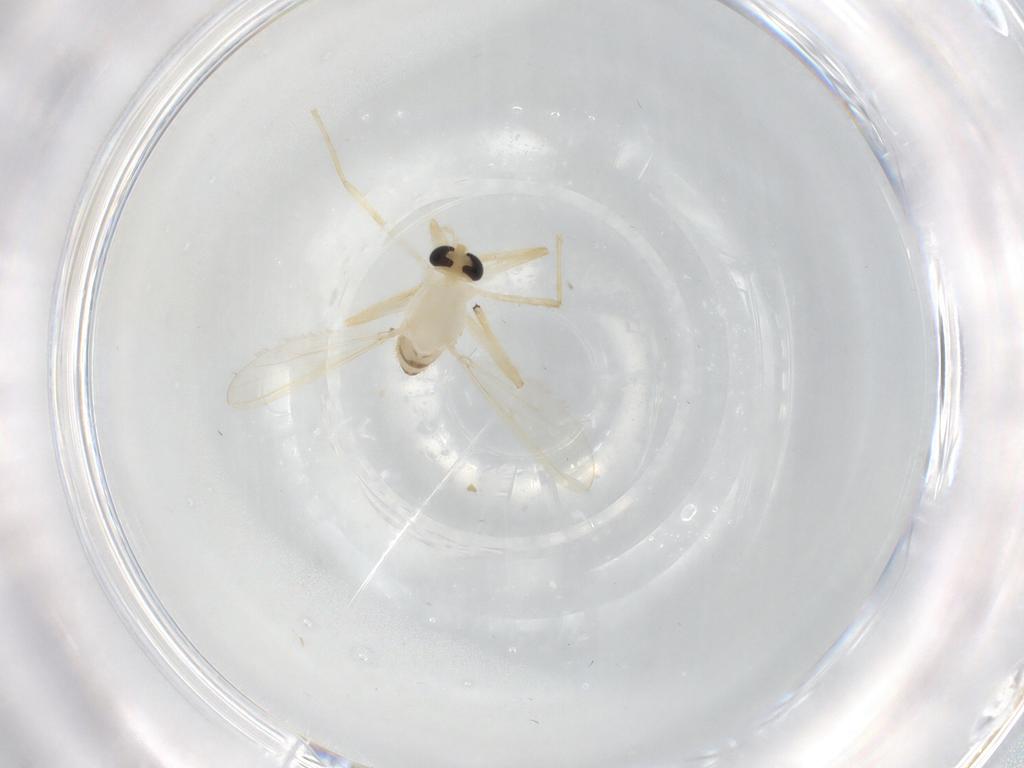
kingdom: Animalia
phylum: Arthropoda
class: Insecta
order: Diptera
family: Chironomidae
